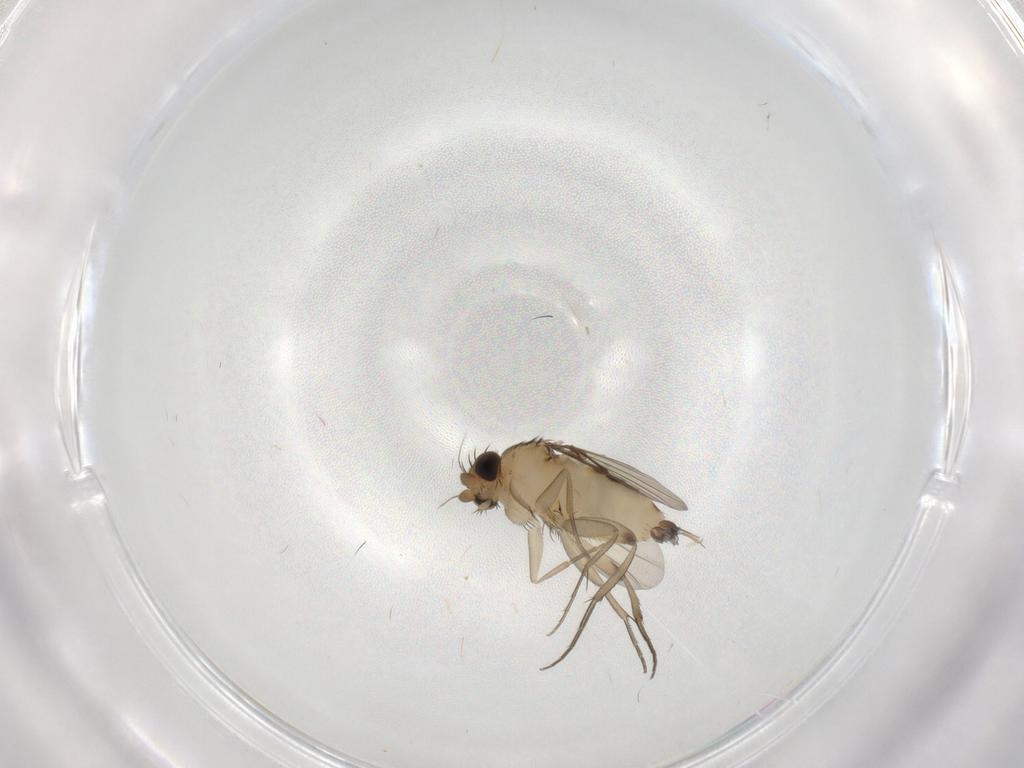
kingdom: Animalia
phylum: Arthropoda
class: Insecta
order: Diptera
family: Phoridae
